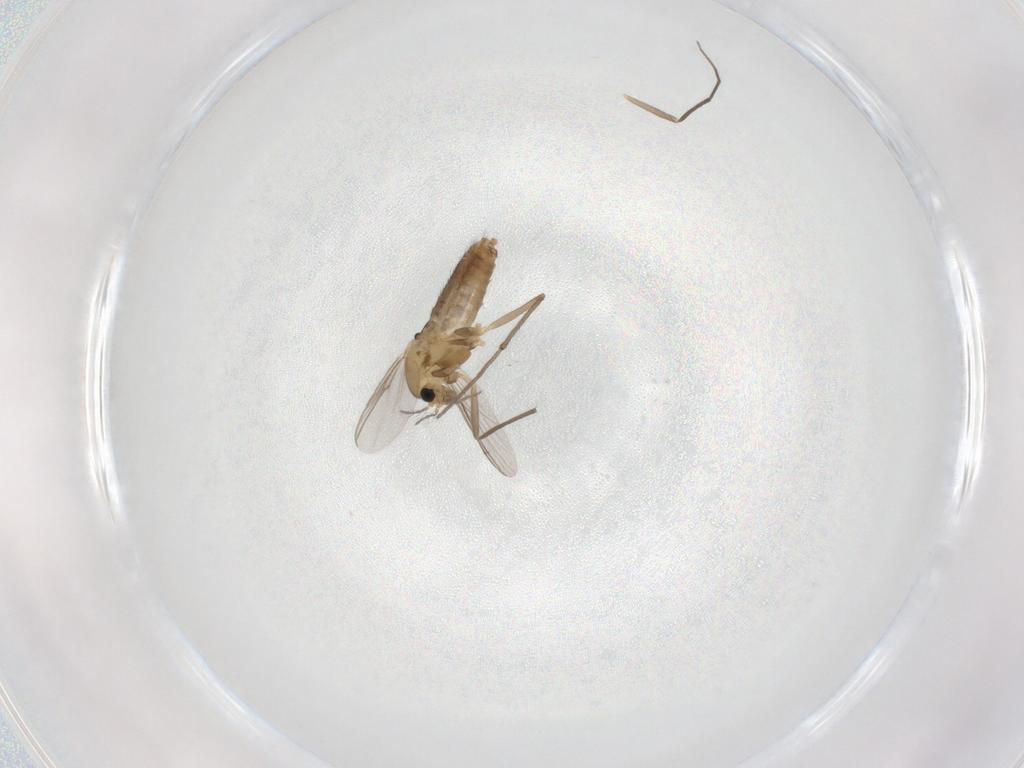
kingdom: Animalia
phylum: Arthropoda
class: Insecta
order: Diptera
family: Chironomidae
